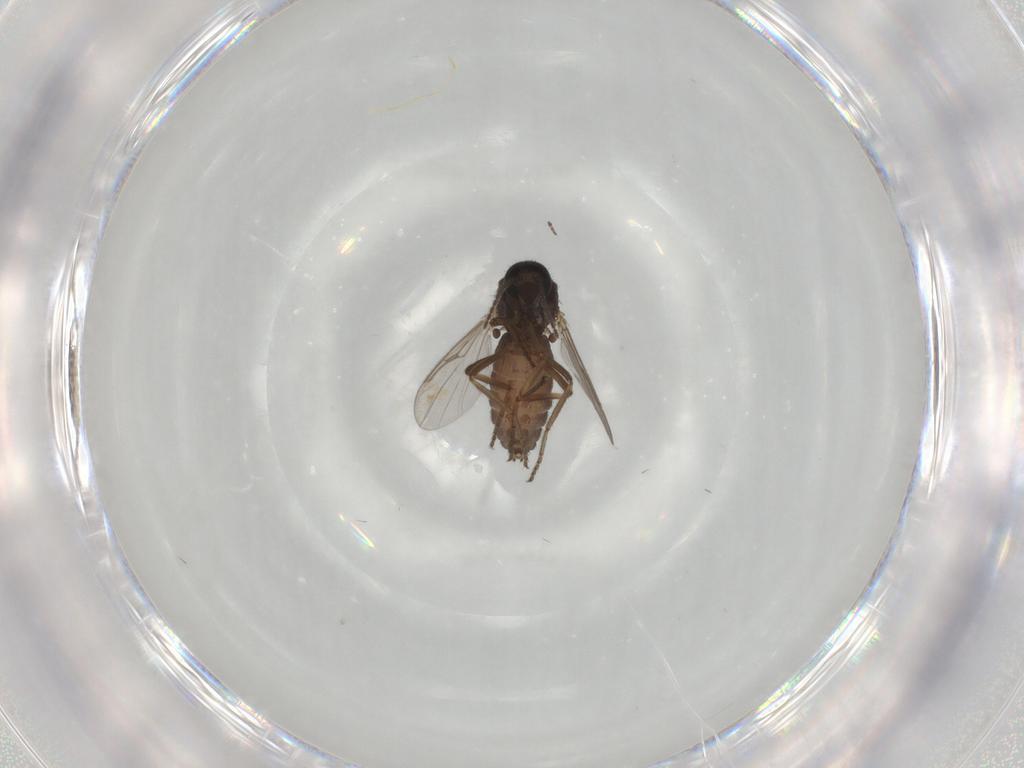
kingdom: Animalia
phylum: Arthropoda
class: Insecta
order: Diptera
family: Ceratopogonidae
